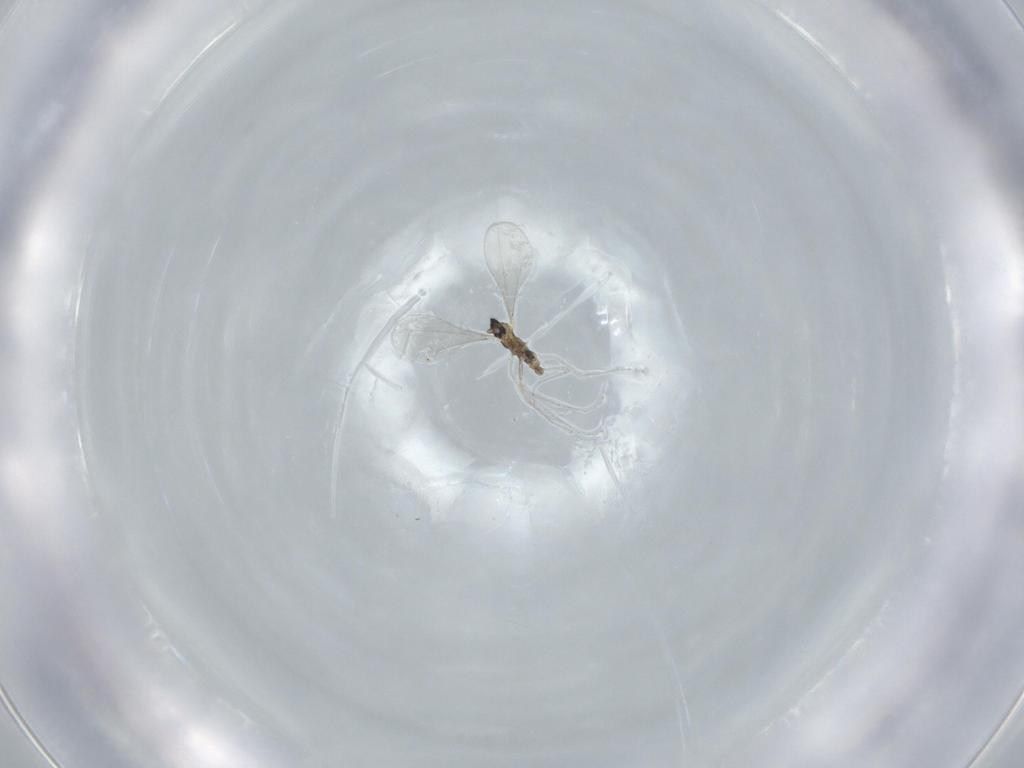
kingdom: Animalia
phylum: Arthropoda
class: Insecta
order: Diptera
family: Cecidomyiidae
